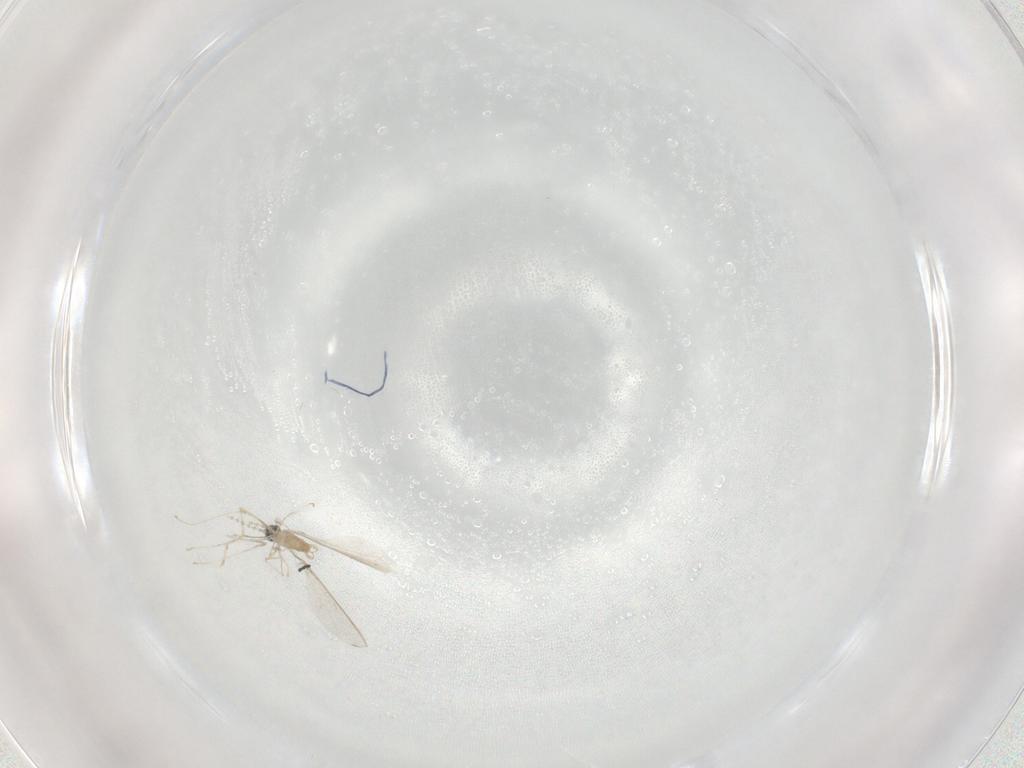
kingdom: Animalia
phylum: Arthropoda
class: Insecta
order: Diptera
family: Cecidomyiidae
